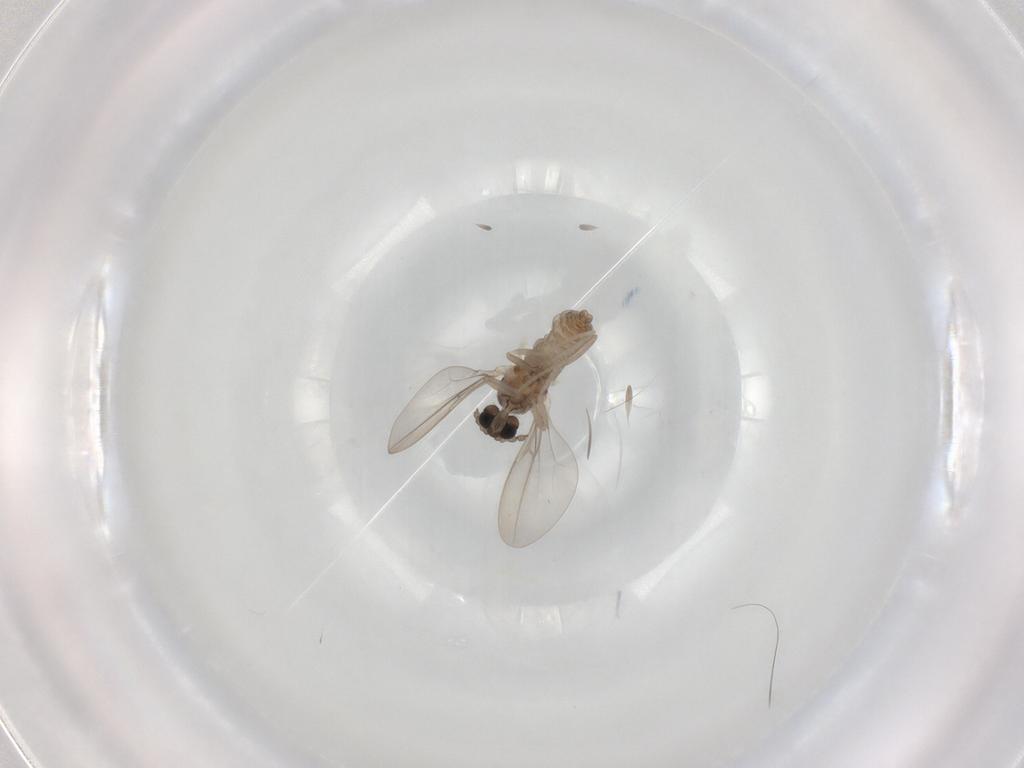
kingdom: Animalia
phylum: Arthropoda
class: Insecta
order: Diptera
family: Cecidomyiidae
